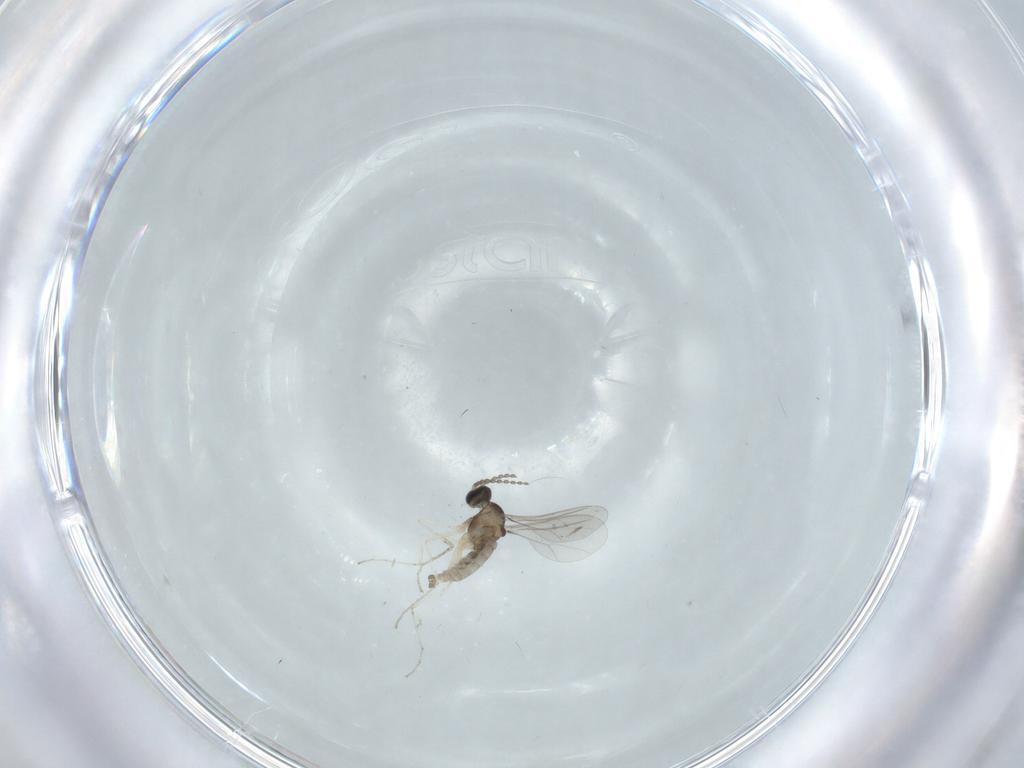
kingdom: Animalia
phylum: Arthropoda
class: Insecta
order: Diptera
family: Cecidomyiidae
